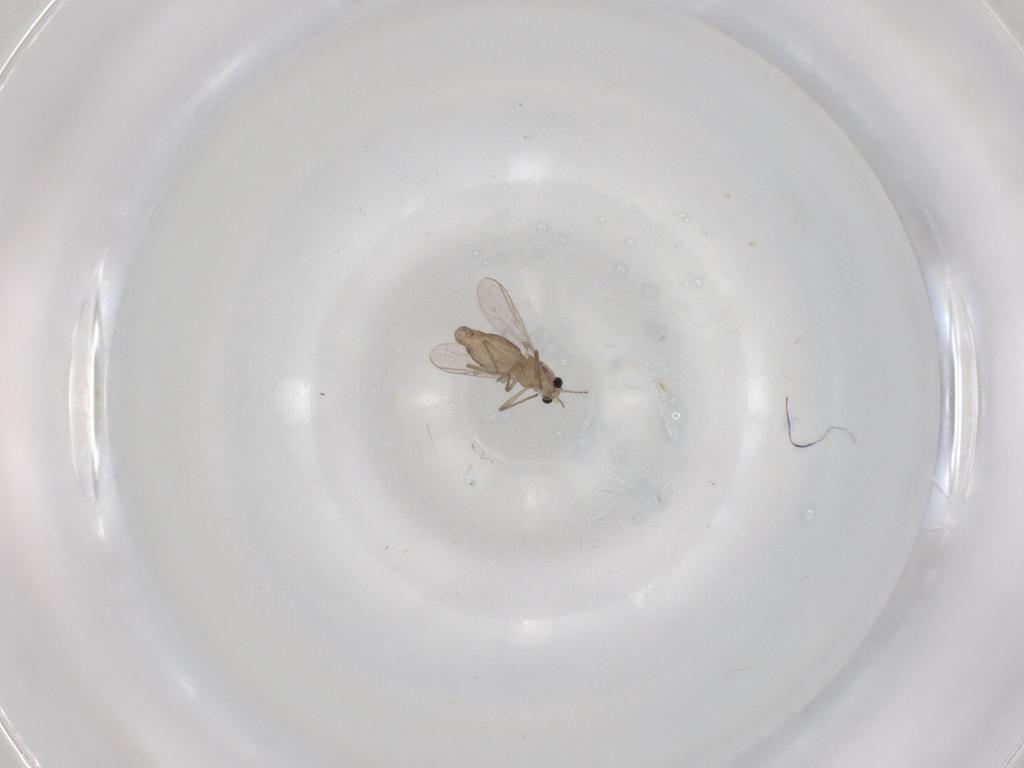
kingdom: Animalia
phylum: Arthropoda
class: Insecta
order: Diptera
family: Chironomidae
